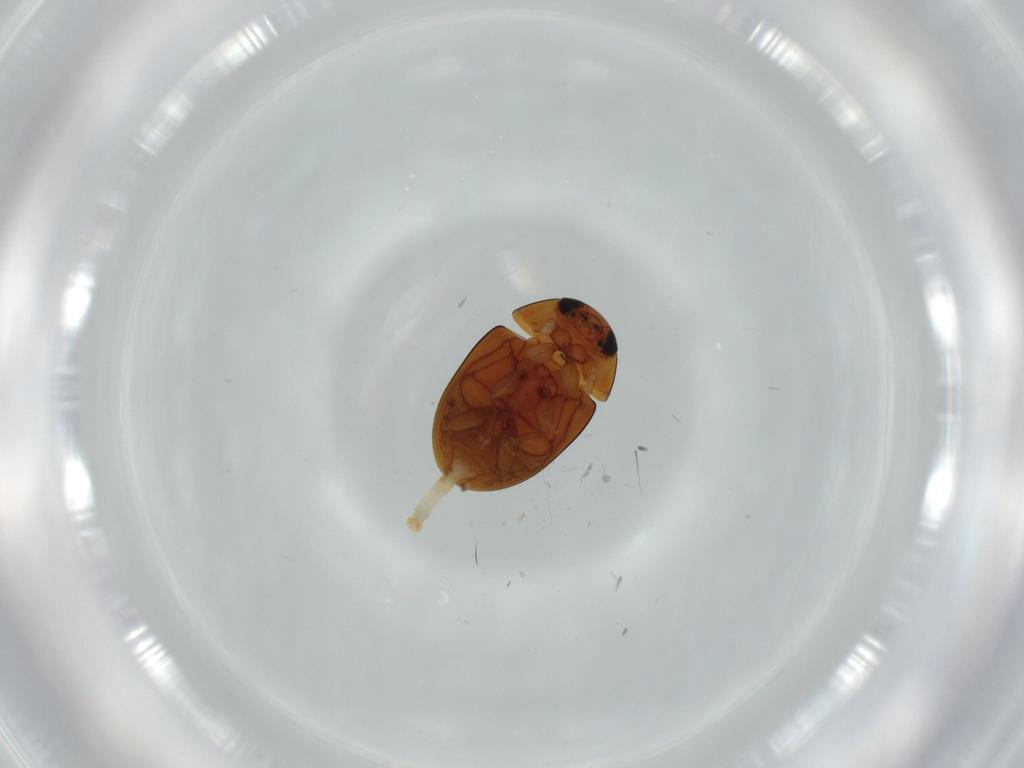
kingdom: Animalia
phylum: Arthropoda
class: Insecta
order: Coleoptera
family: Phalacridae
